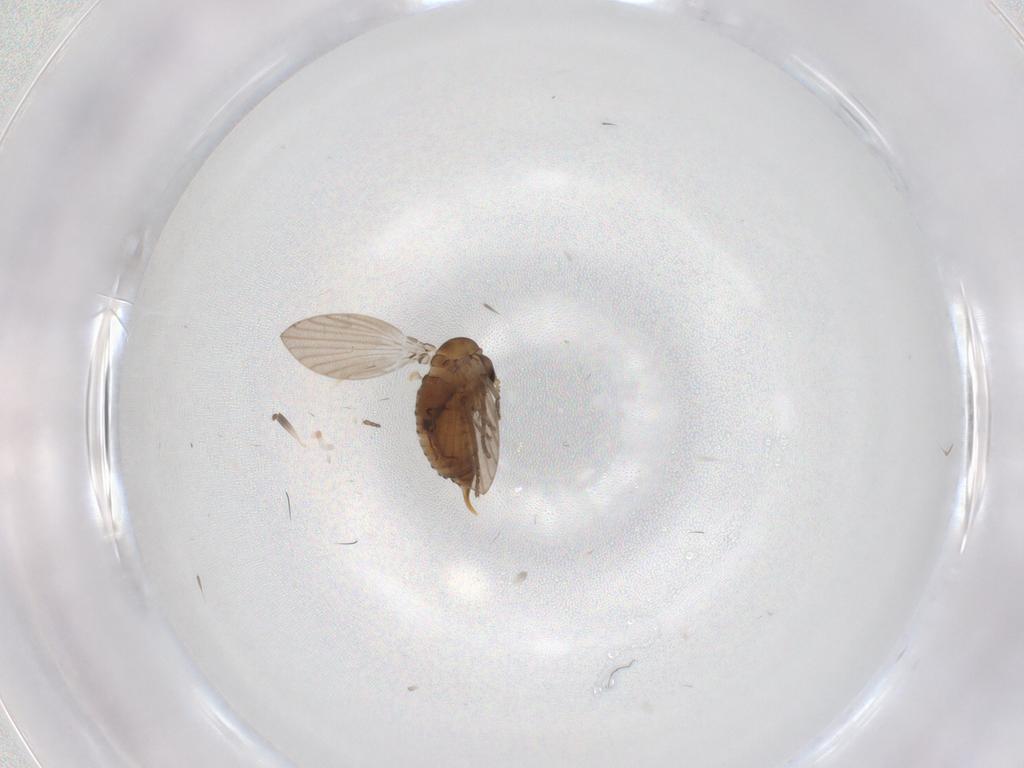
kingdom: Animalia
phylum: Arthropoda
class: Insecta
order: Diptera
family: Psychodidae
